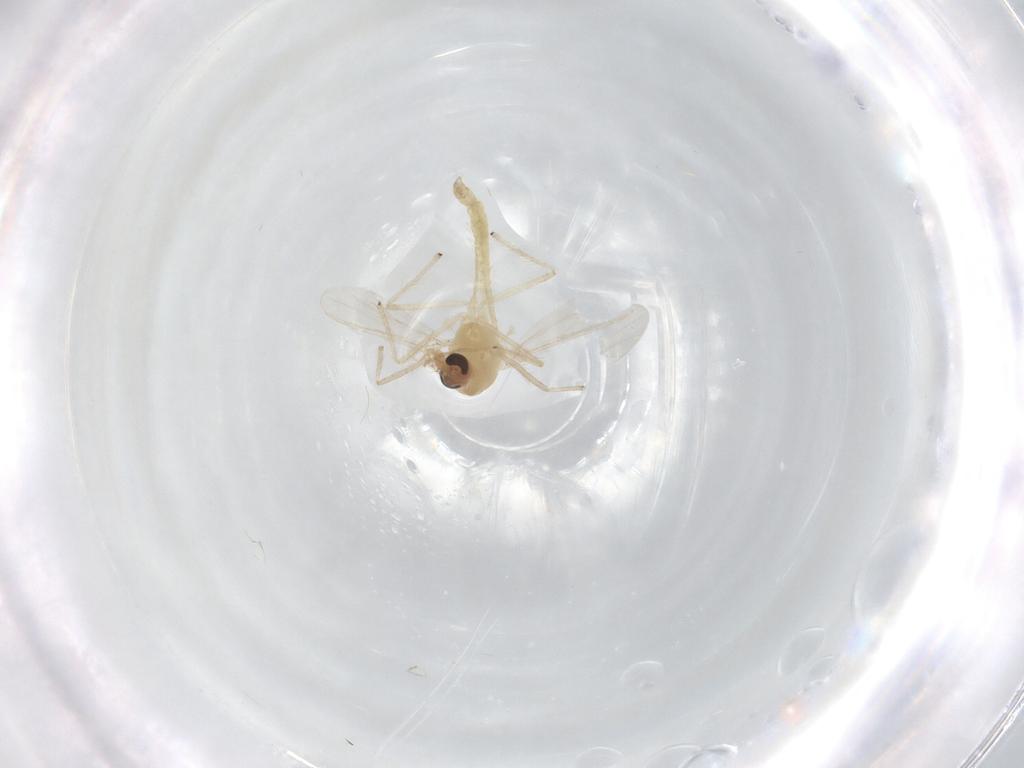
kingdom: Animalia
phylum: Arthropoda
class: Insecta
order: Diptera
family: Chironomidae
